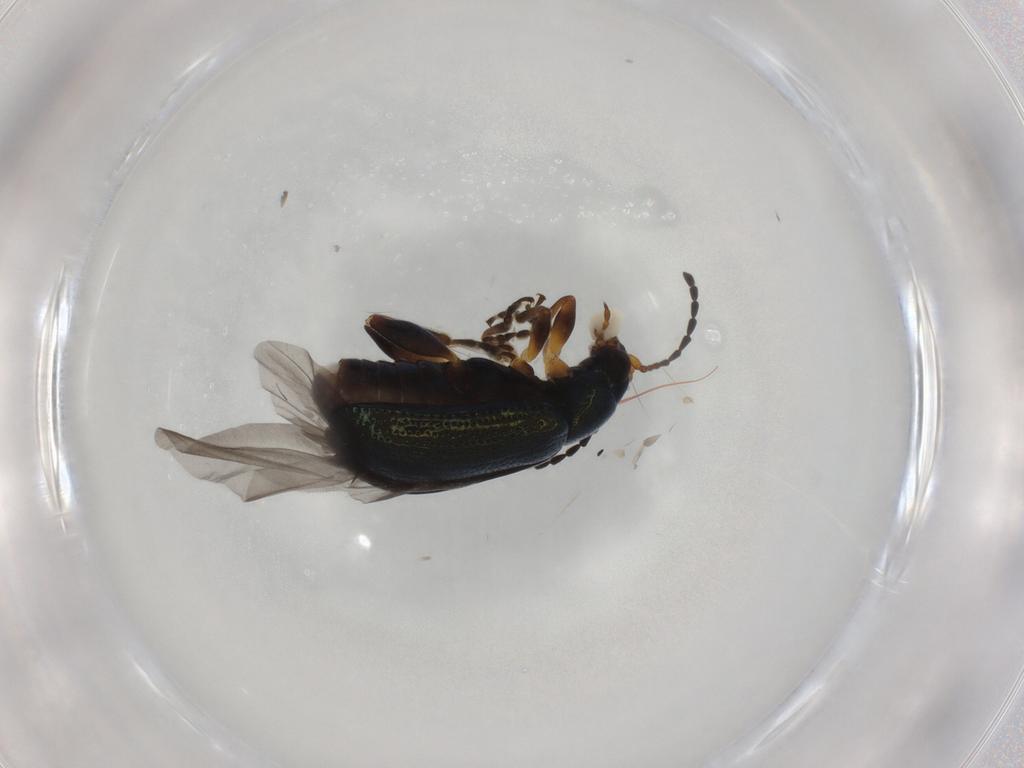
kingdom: Animalia
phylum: Arthropoda
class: Insecta
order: Coleoptera
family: Chrysomelidae
